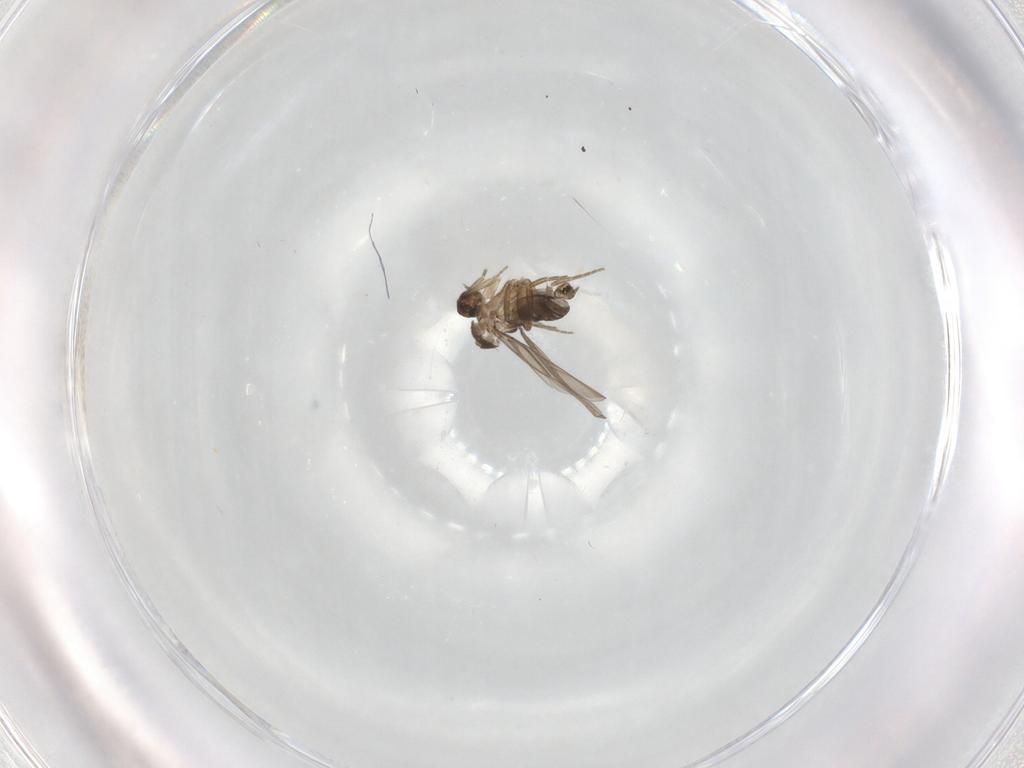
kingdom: Animalia
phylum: Arthropoda
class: Insecta
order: Diptera
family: Phoridae
